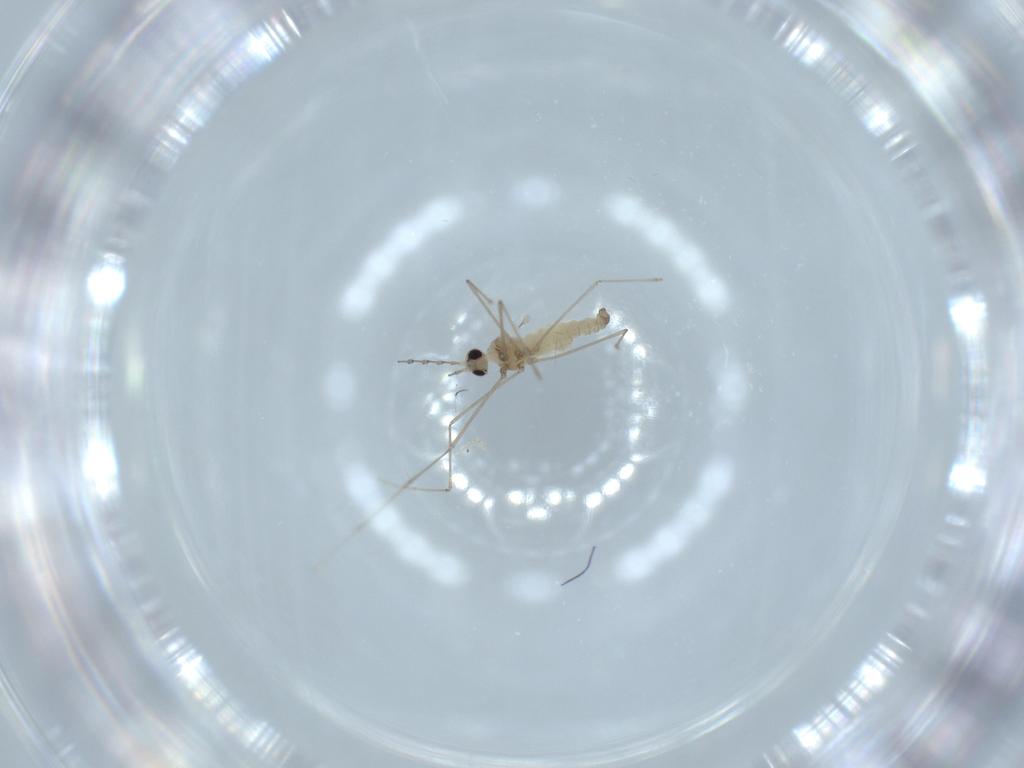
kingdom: Animalia
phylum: Arthropoda
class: Insecta
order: Diptera
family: Cecidomyiidae
